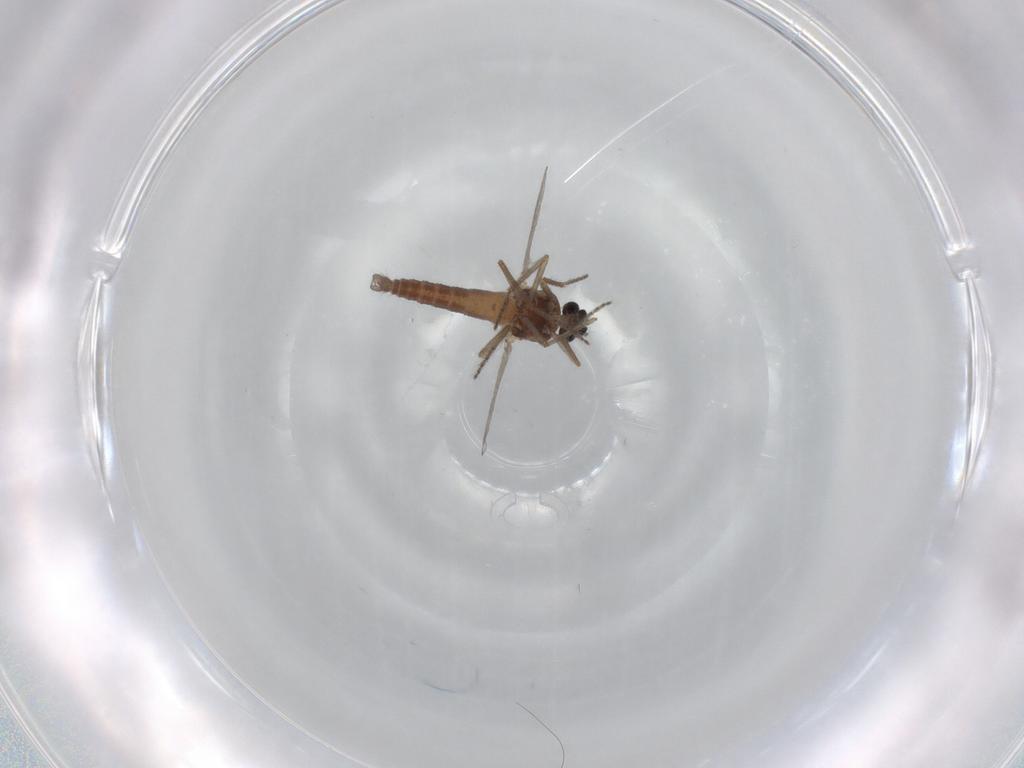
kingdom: Animalia
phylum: Arthropoda
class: Insecta
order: Diptera
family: Ceratopogonidae
